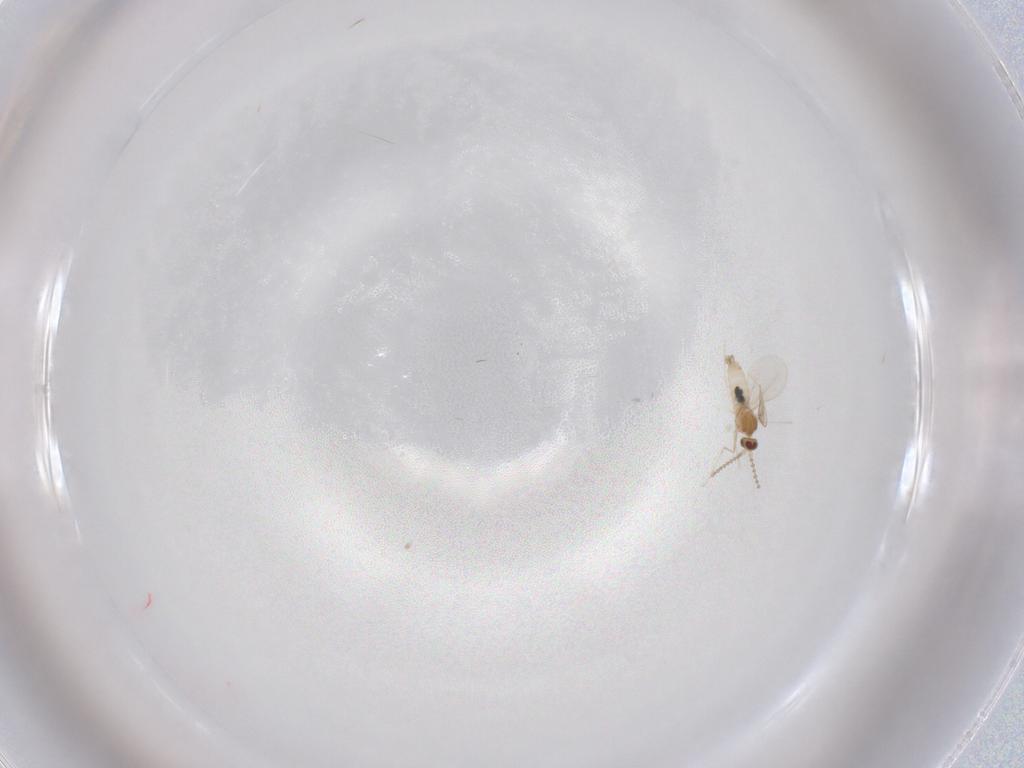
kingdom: Animalia
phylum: Arthropoda
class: Insecta
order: Diptera
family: Cecidomyiidae
